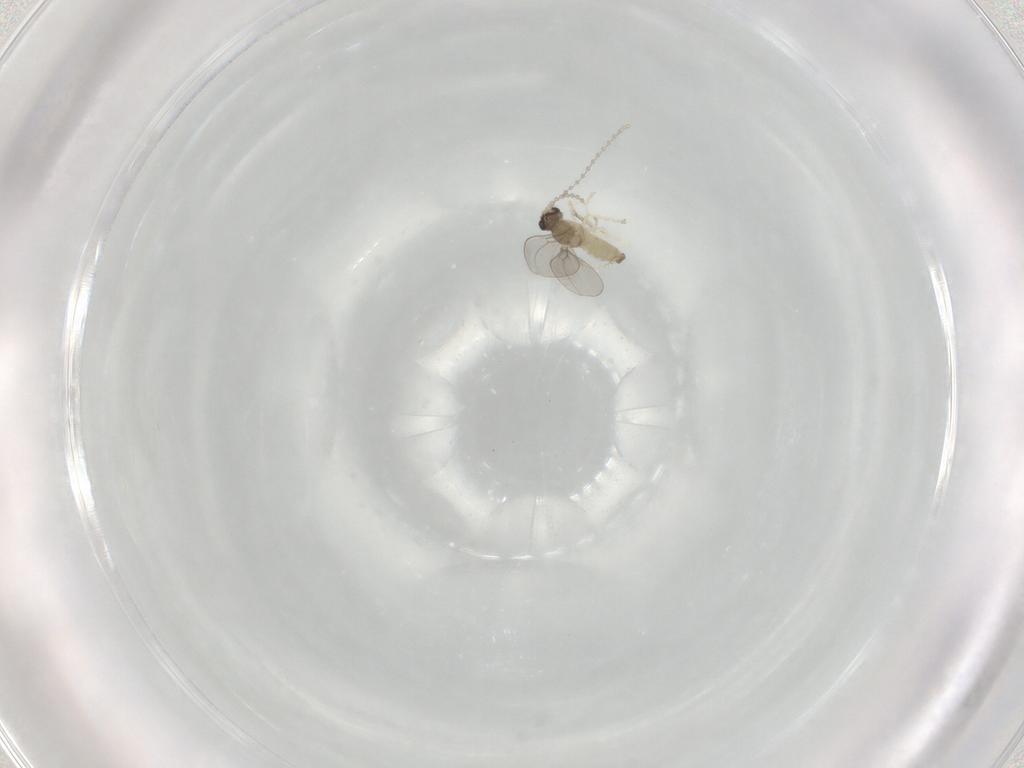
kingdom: Animalia
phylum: Arthropoda
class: Insecta
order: Diptera
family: Cecidomyiidae
